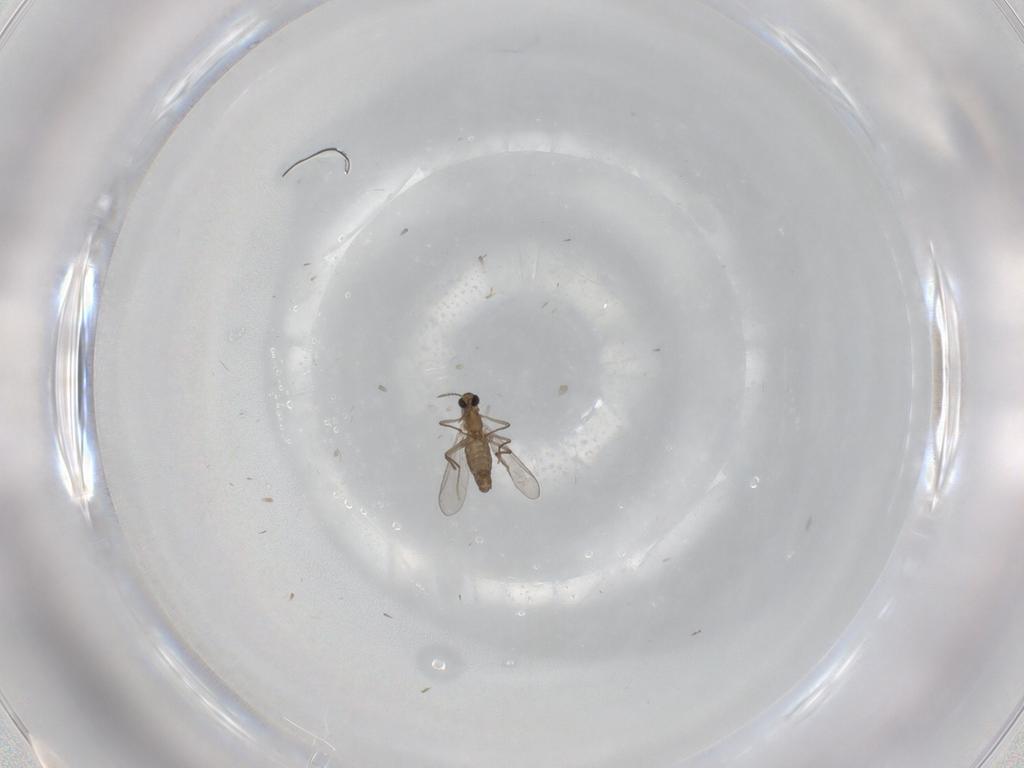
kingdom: Animalia
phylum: Arthropoda
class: Insecta
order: Diptera
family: Chironomidae
